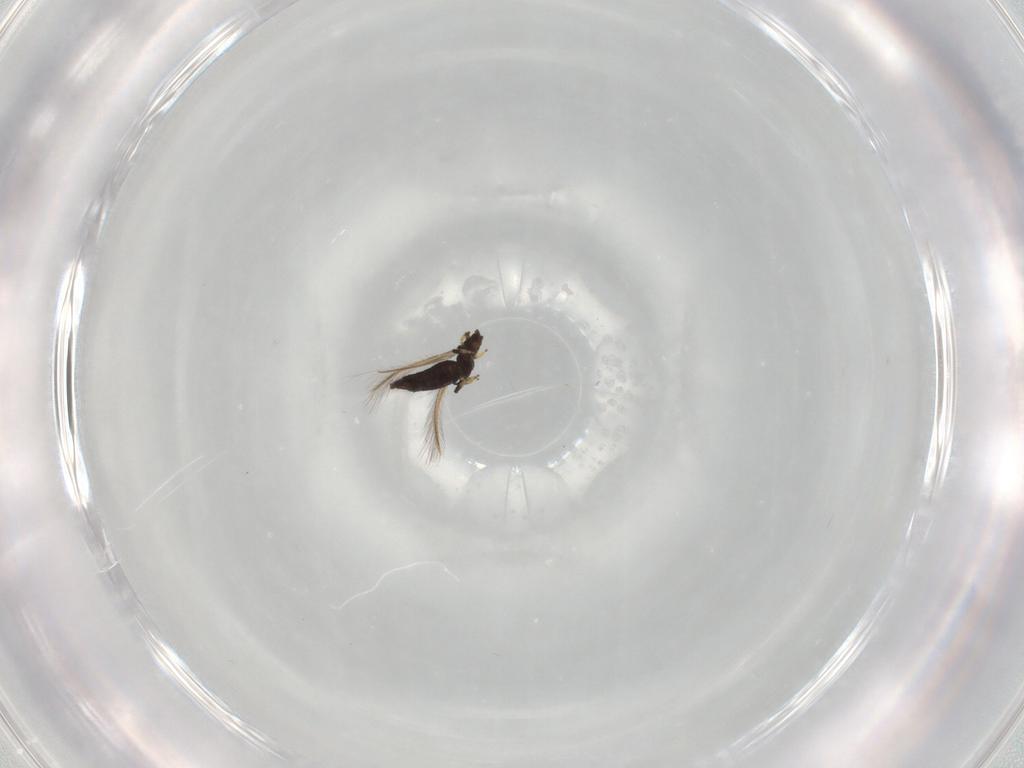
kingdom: Animalia
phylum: Arthropoda
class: Insecta
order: Thysanoptera
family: Thripidae
